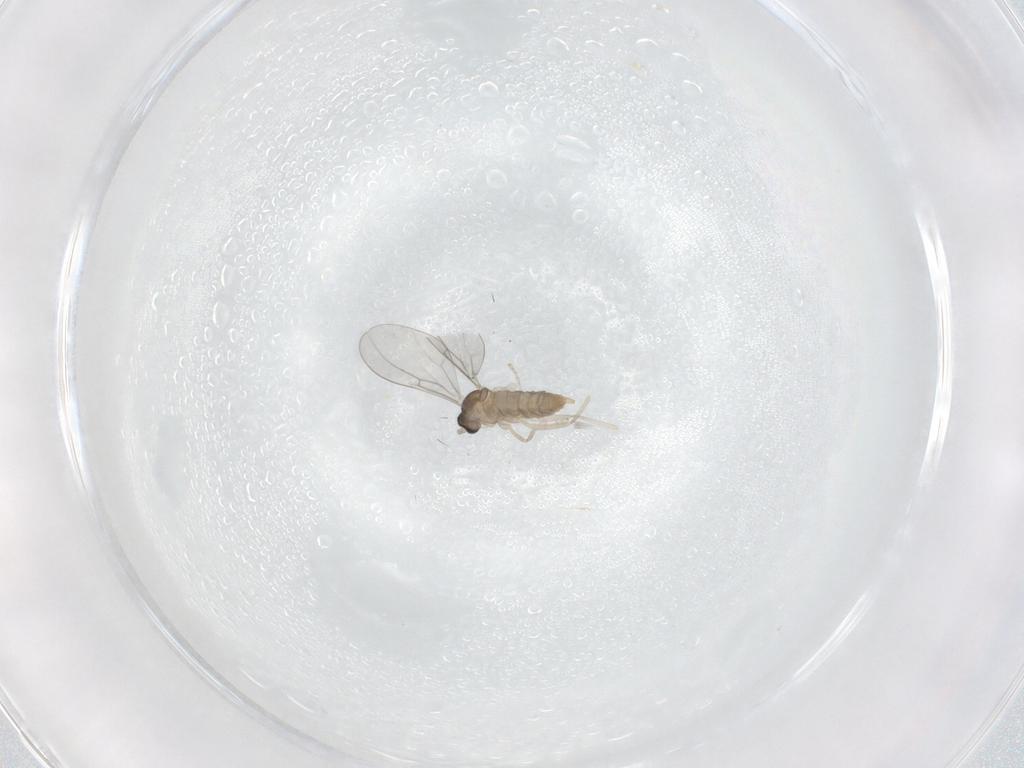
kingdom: Animalia
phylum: Arthropoda
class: Insecta
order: Diptera
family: Cecidomyiidae
